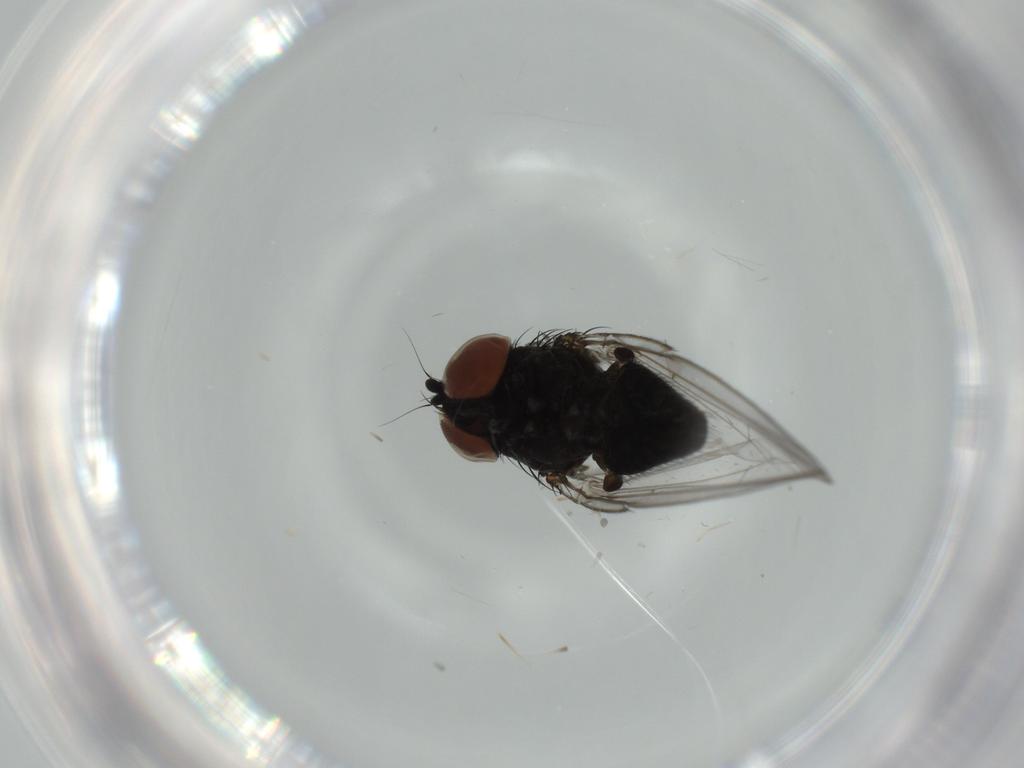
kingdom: Animalia
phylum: Arthropoda
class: Insecta
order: Diptera
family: Milichiidae
